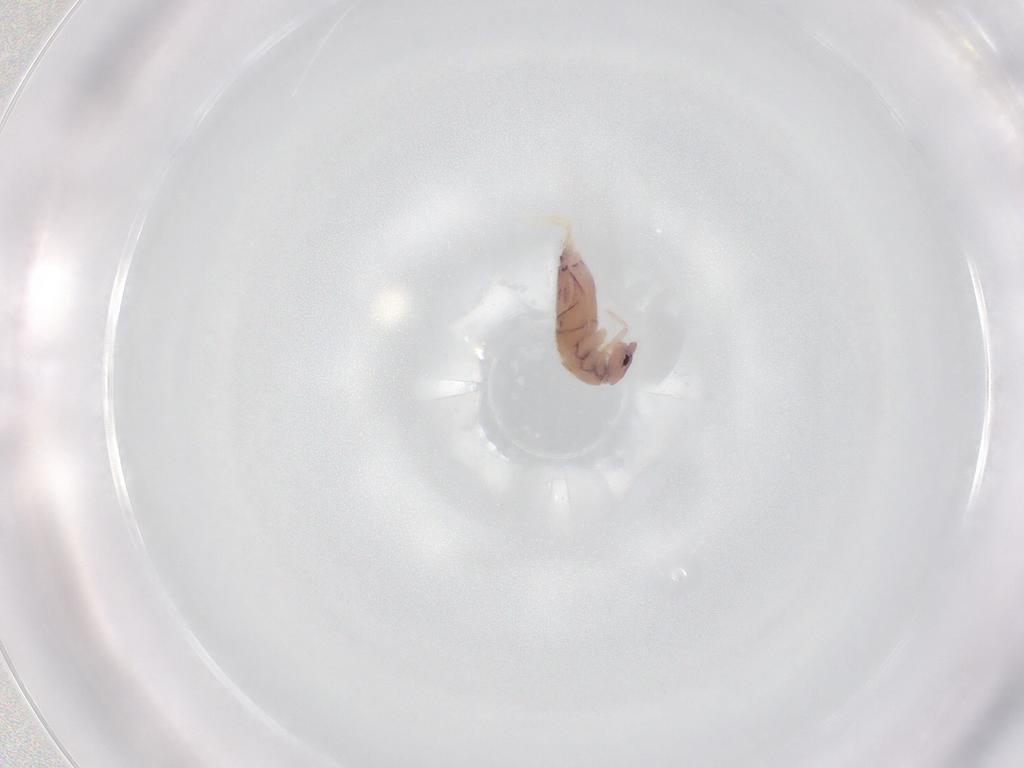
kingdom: Animalia
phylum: Arthropoda
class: Collembola
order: Entomobryomorpha
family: Entomobryidae
